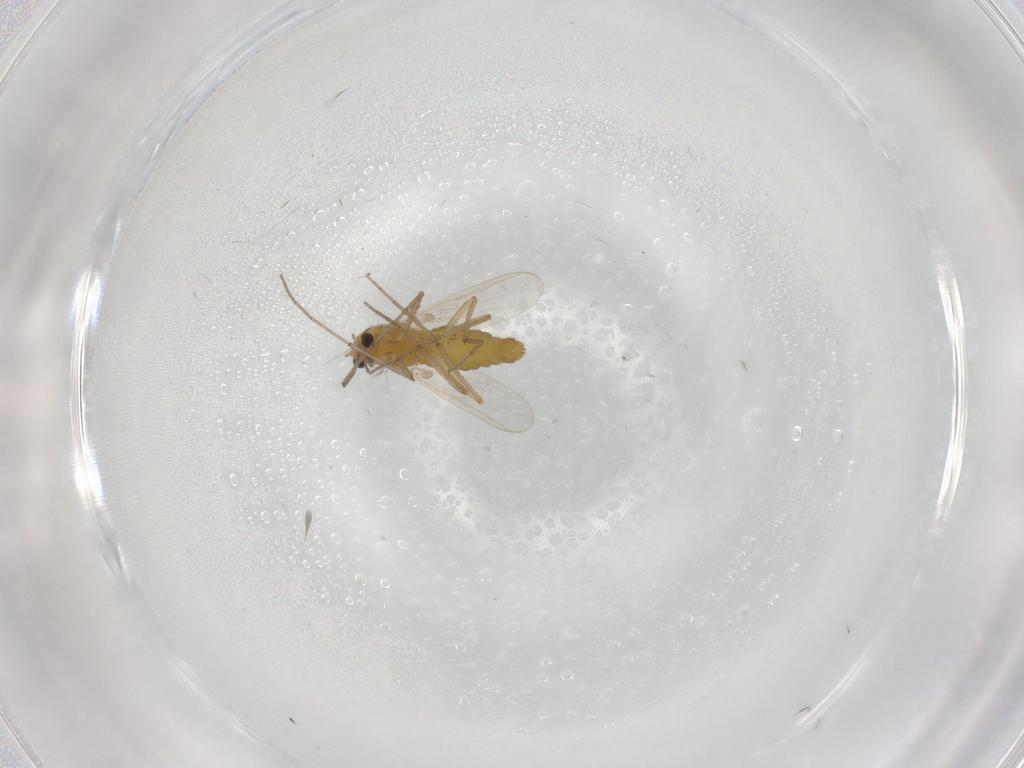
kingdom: Animalia
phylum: Arthropoda
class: Insecta
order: Diptera
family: Chironomidae
